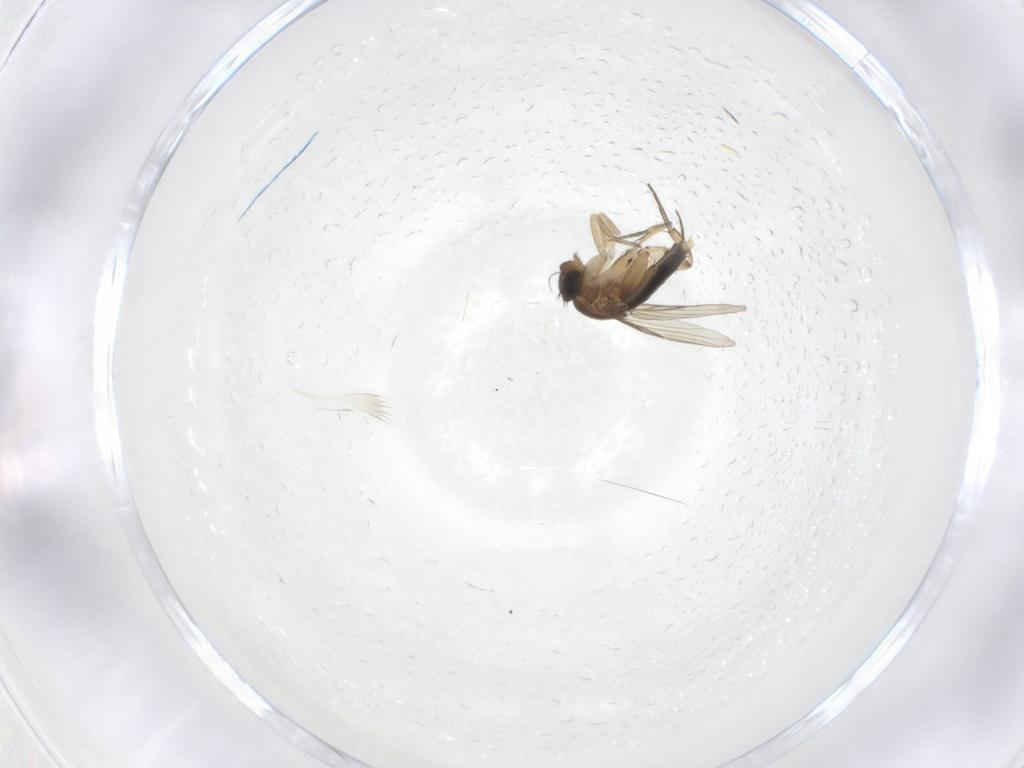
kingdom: Animalia
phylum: Arthropoda
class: Insecta
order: Diptera
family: Phoridae
